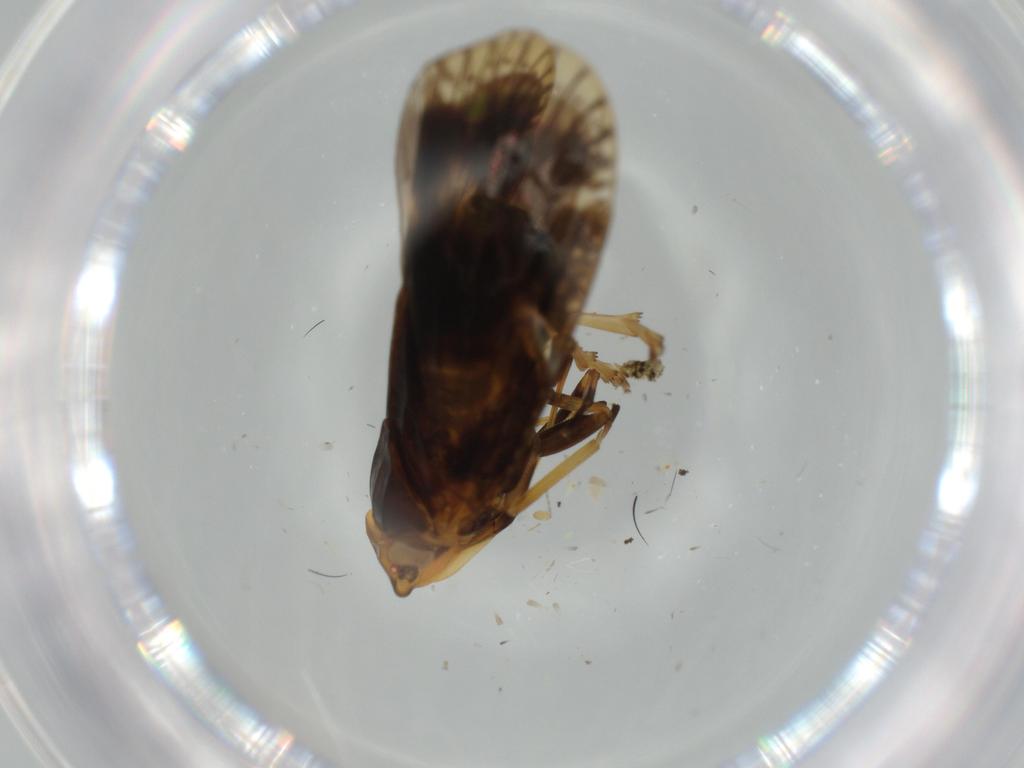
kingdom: Animalia
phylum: Arthropoda
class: Insecta
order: Hemiptera
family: Cixiidae
